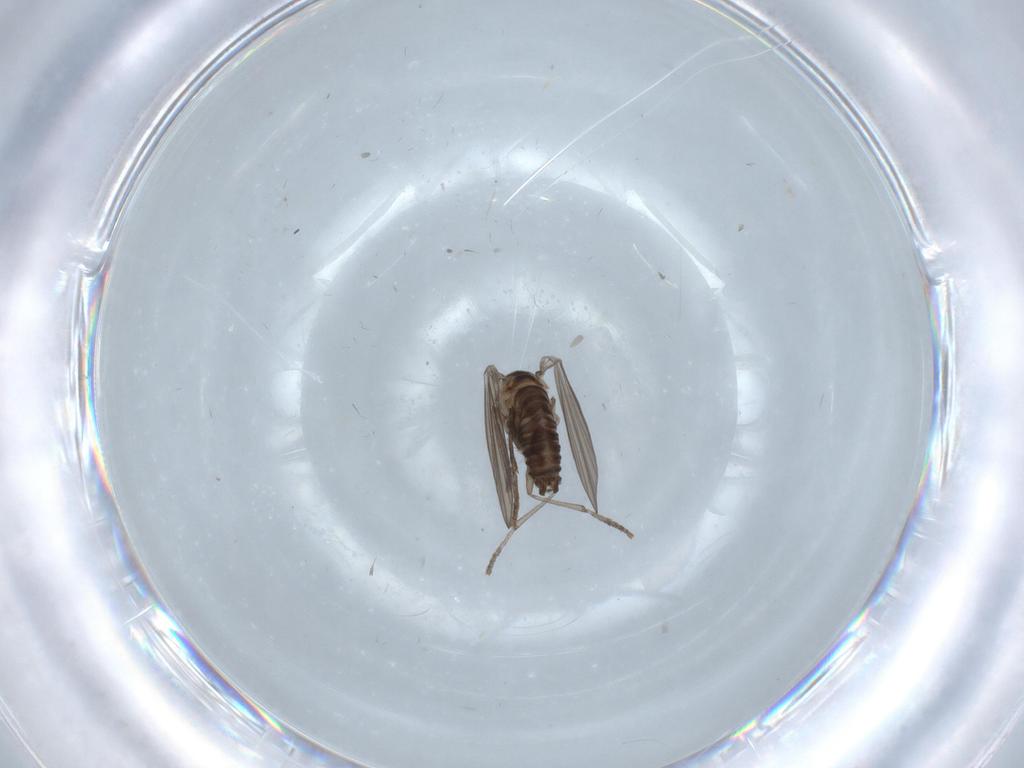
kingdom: Animalia
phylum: Arthropoda
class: Insecta
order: Diptera
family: Psychodidae
